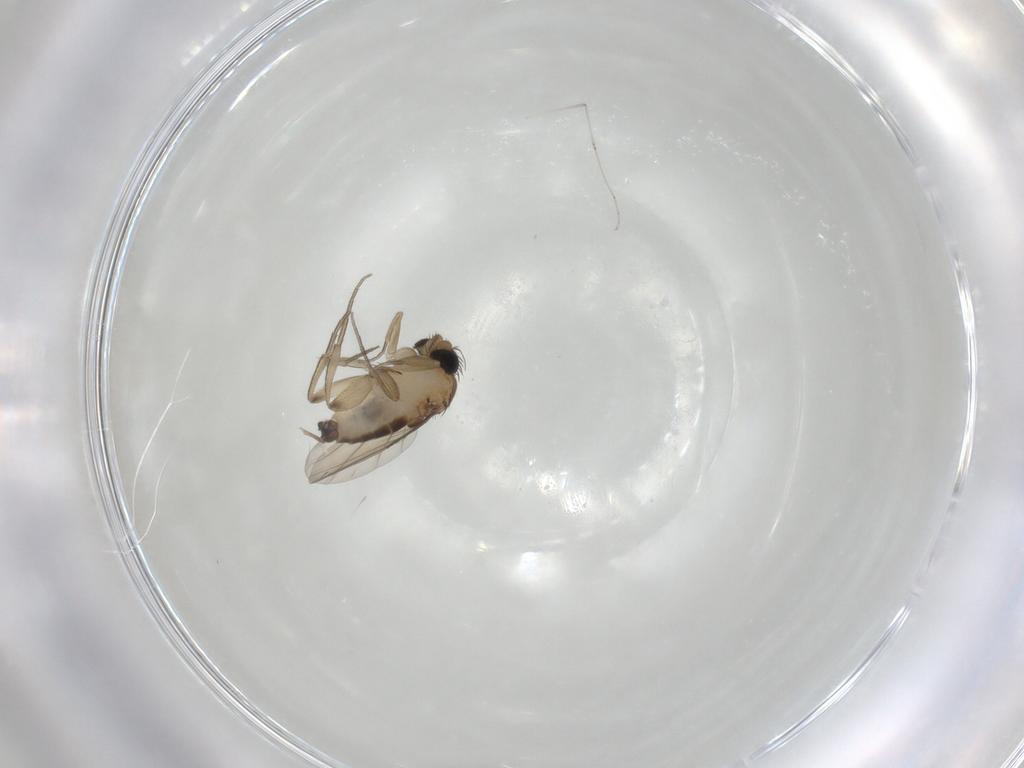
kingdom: Animalia
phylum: Arthropoda
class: Insecta
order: Diptera
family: Phoridae
